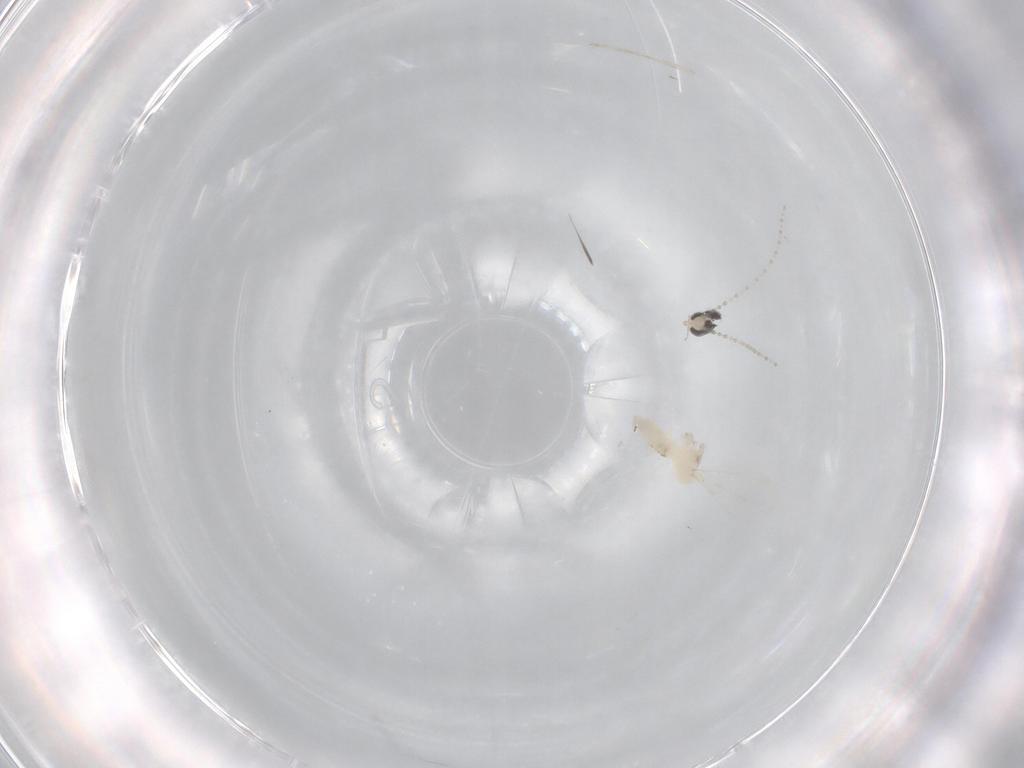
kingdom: Animalia
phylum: Arthropoda
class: Insecta
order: Diptera
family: Cecidomyiidae
